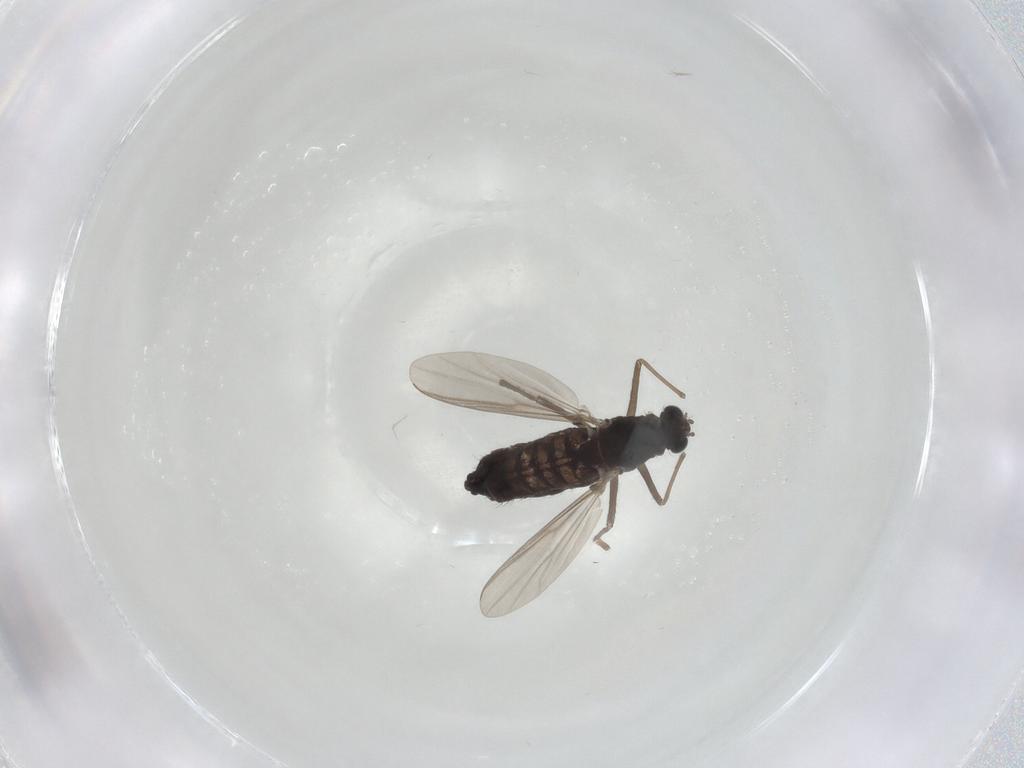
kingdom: Animalia
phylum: Arthropoda
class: Insecta
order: Diptera
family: Chironomidae
